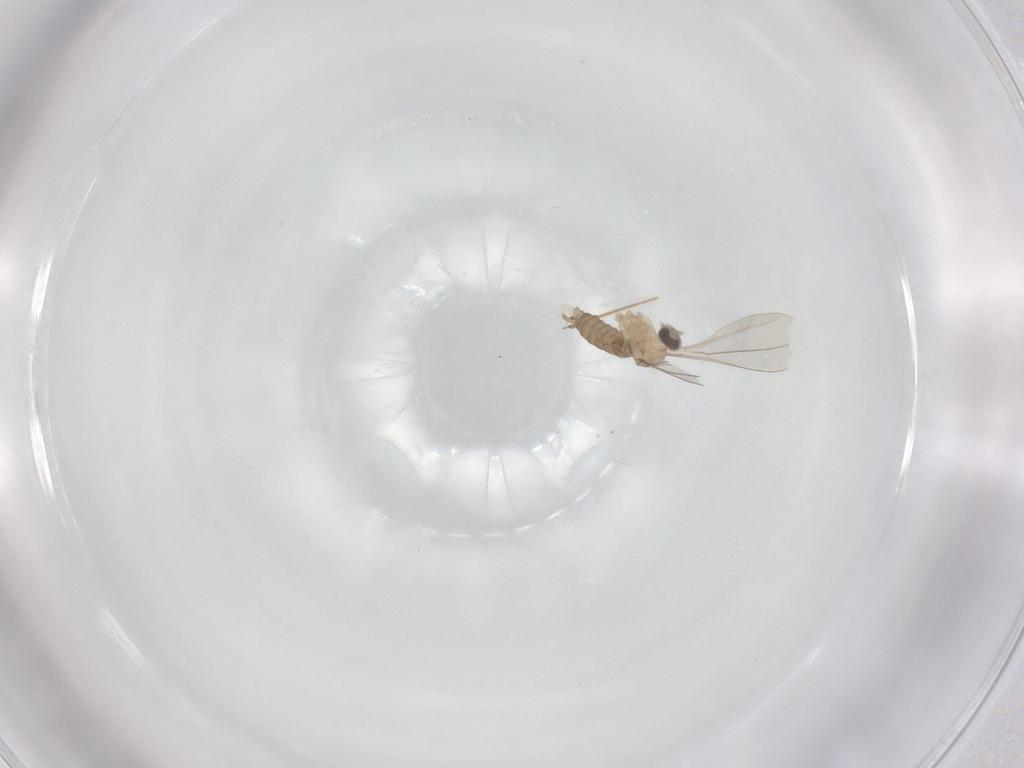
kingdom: Animalia
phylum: Arthropoda
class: Insecta
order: Diptera
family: Cecidomyiidae
